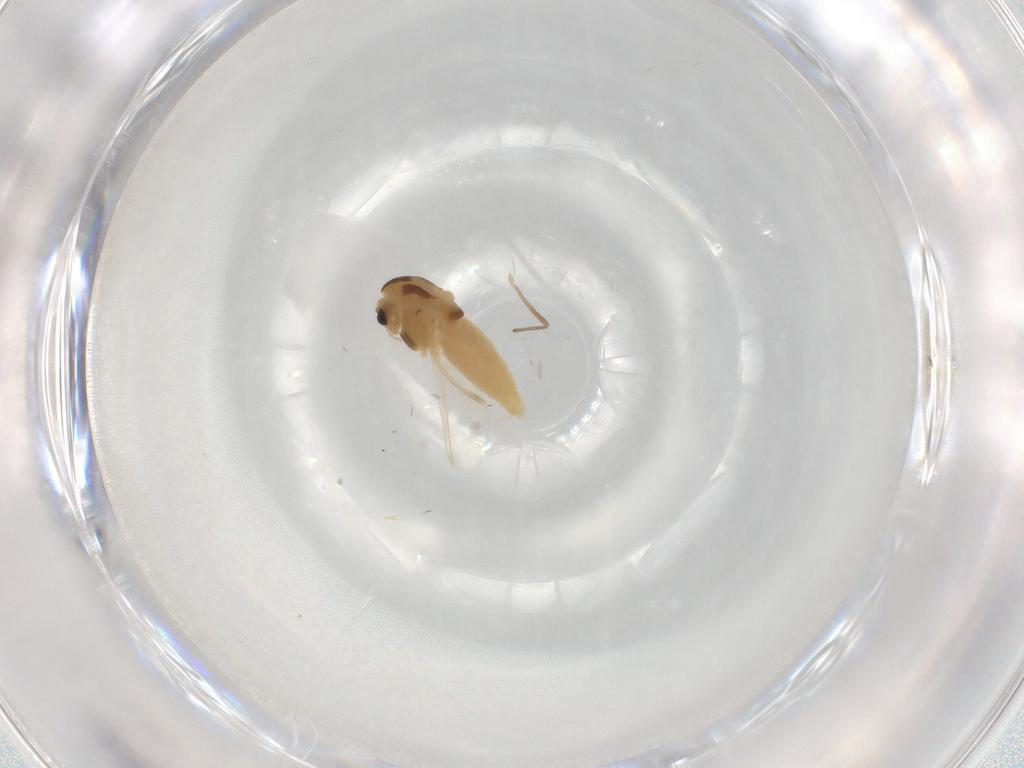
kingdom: Animalia
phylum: Arthropoda
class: Insecta
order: Diptera
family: Chironomidae
